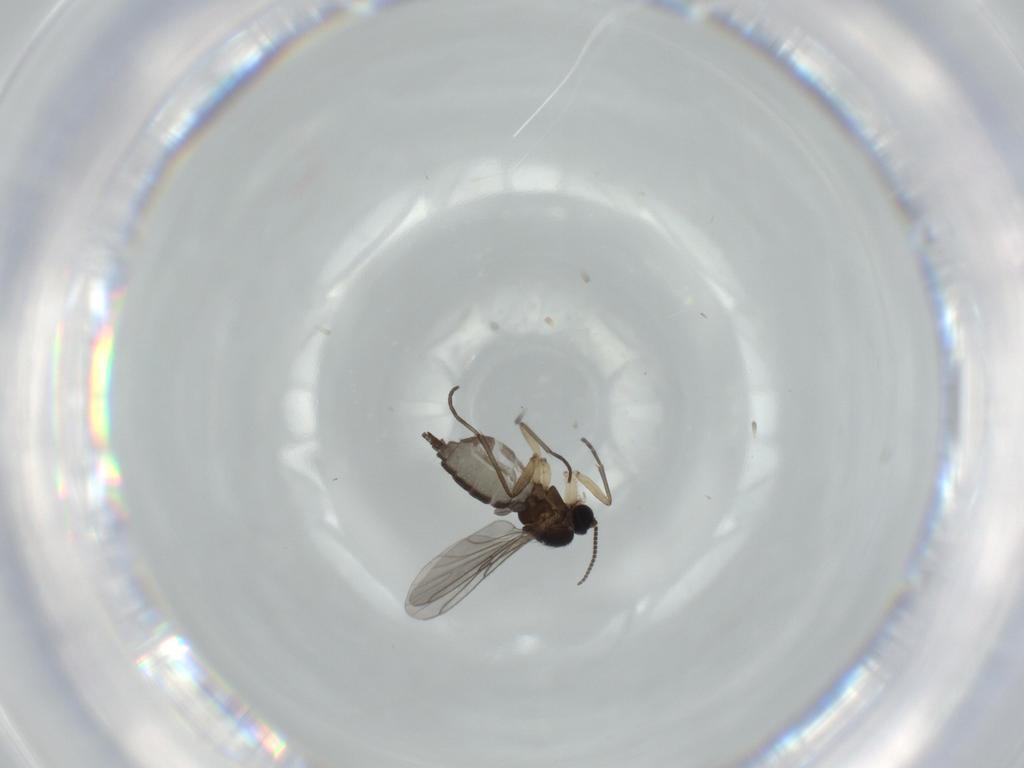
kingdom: Animalia
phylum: Arthropoda
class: Insecta
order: Diptera
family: Sciaridae
